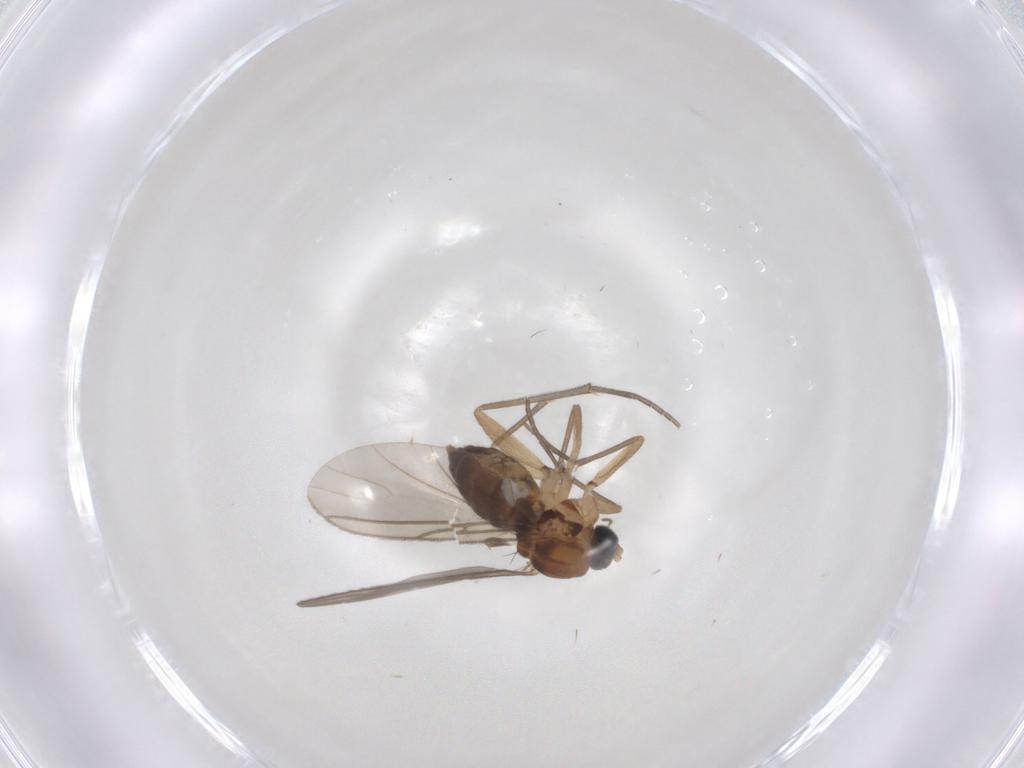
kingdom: Animalia
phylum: Arthropoda
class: Insecta
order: Diptera
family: Sciaridae
